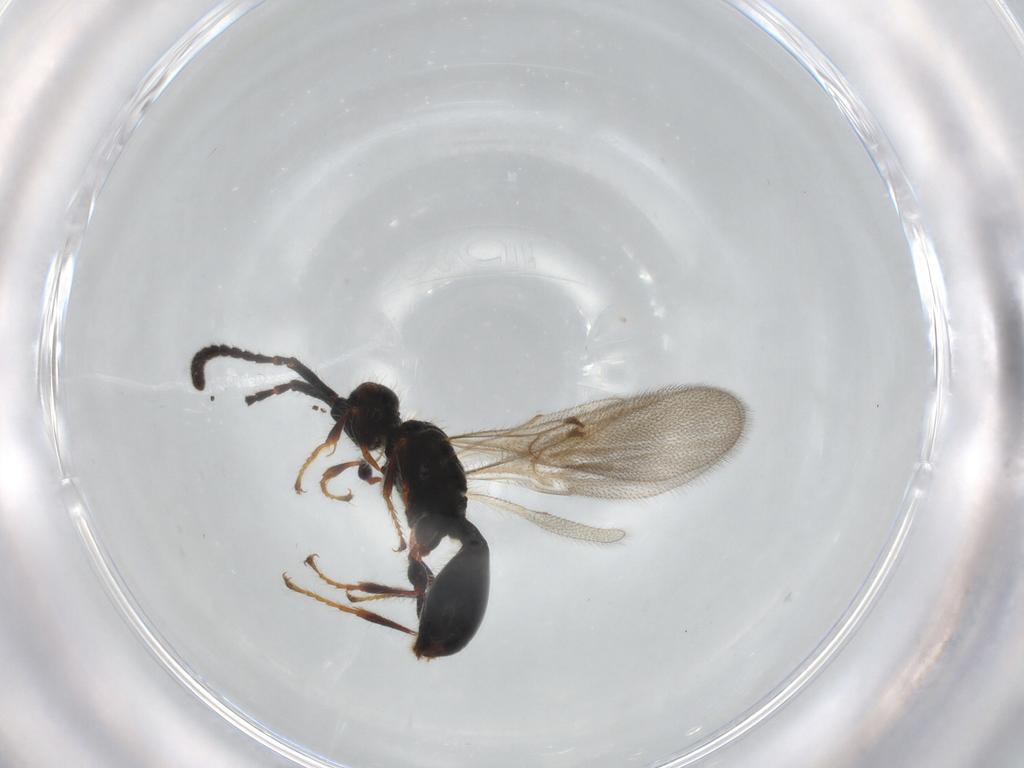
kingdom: Animalia
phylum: Arthropoda
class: Insecta
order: Hymenoptera
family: Diapriidae
